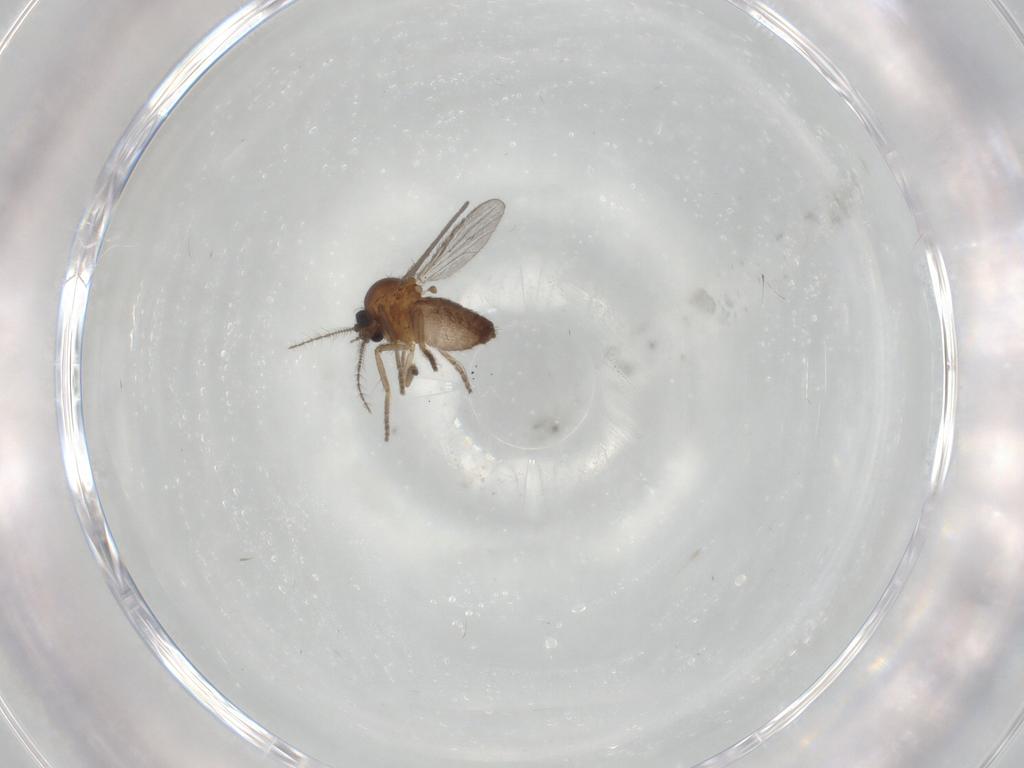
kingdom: Animalia
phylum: Arthropoda
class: Insecta
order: Diptera
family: Ceratopogonidae
